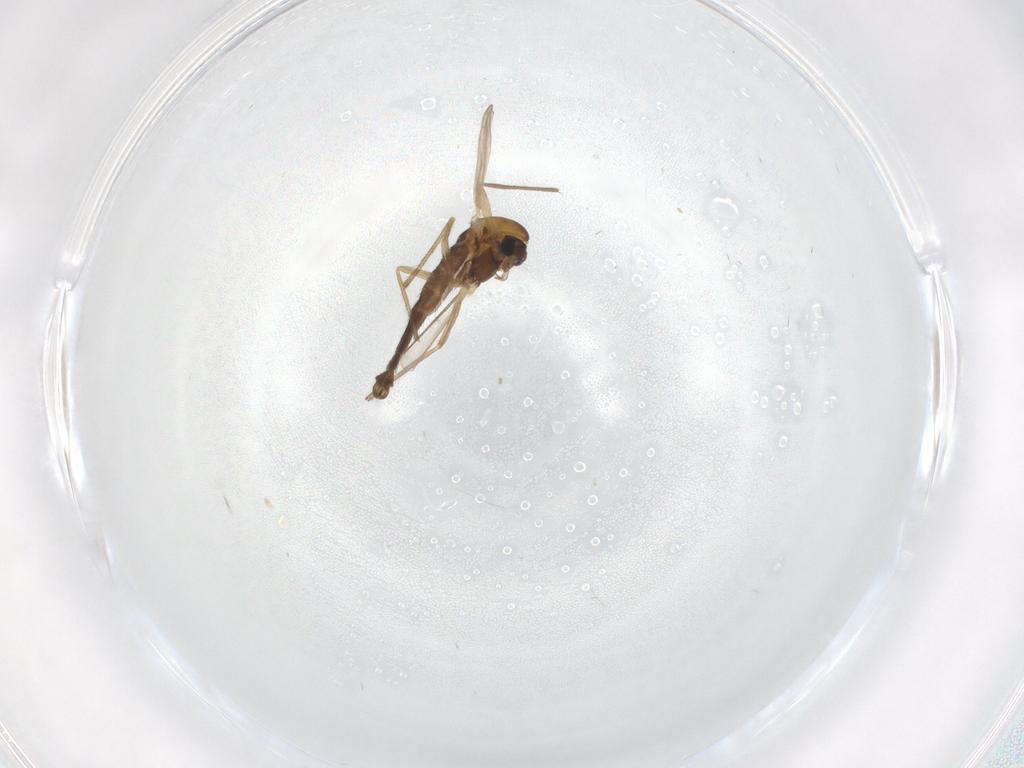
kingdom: Animalia
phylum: Arthropoda
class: Insecta
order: Diptera
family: Chironomidae
